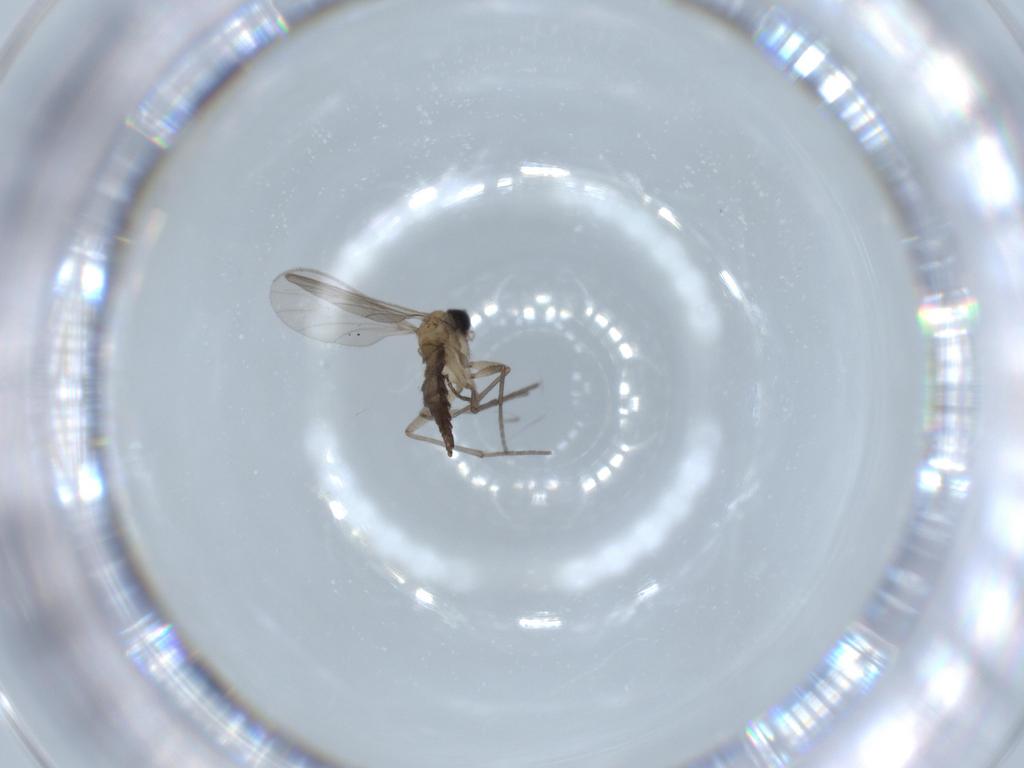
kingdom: Animalia
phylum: Arthropoda
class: Insecta
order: Diptera
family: Sciaridae
